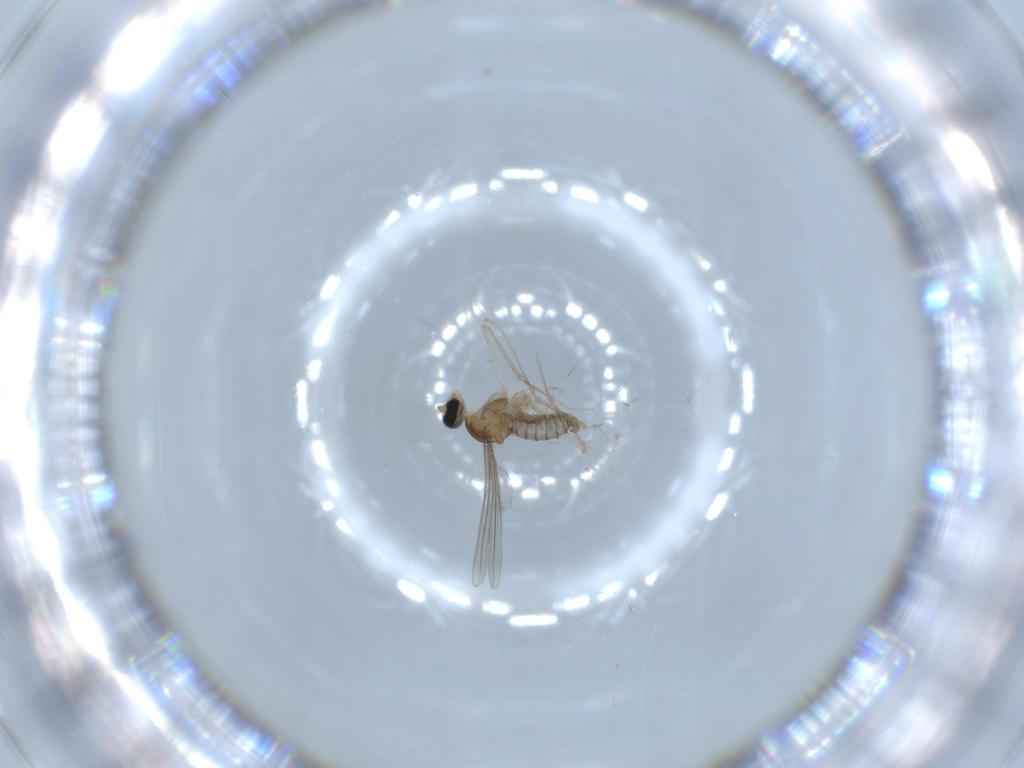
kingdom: Animalia
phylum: Arthropoda
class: Insecta
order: Diptera
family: Cecidomyiidae
